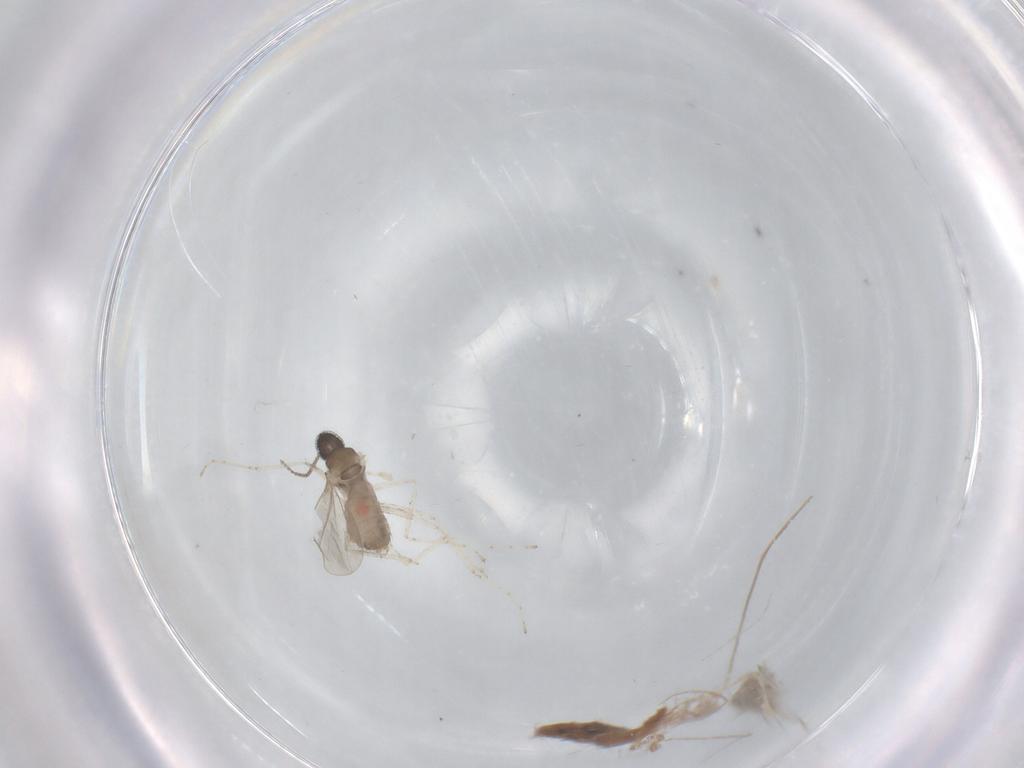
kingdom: Animalia
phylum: Arthropoda
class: Insecta
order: Diptera
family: Cecidomyiidae
